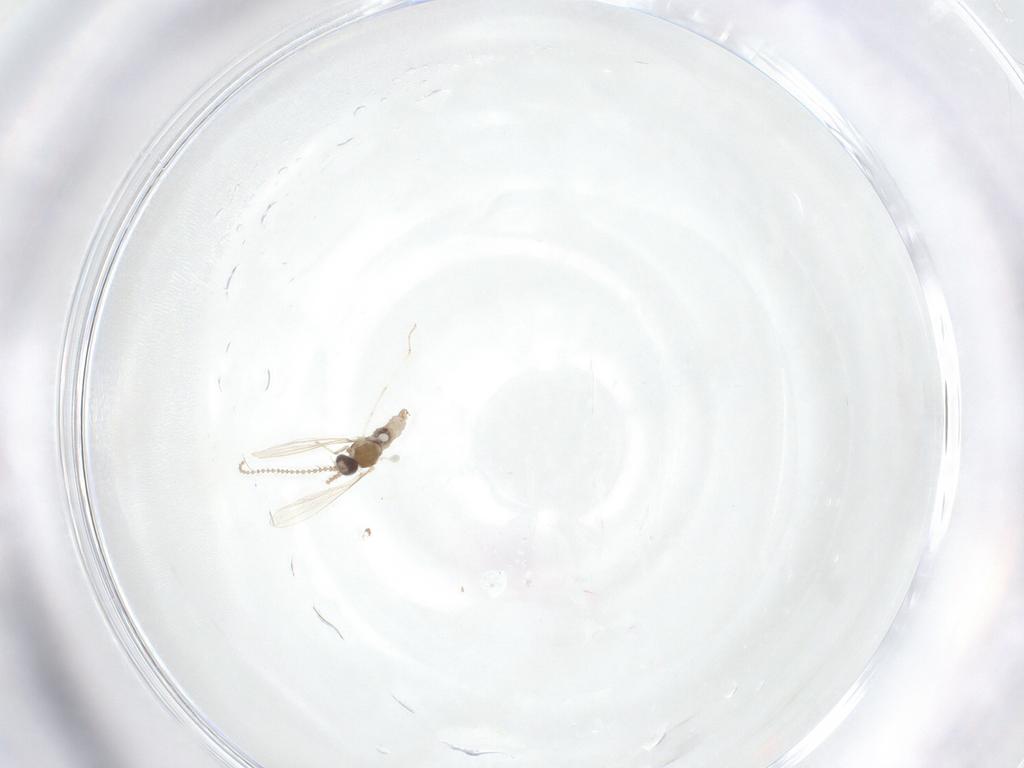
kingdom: Animalia
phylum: Arthropoda
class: Insecta
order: Diptera
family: Cecidomyiidae
